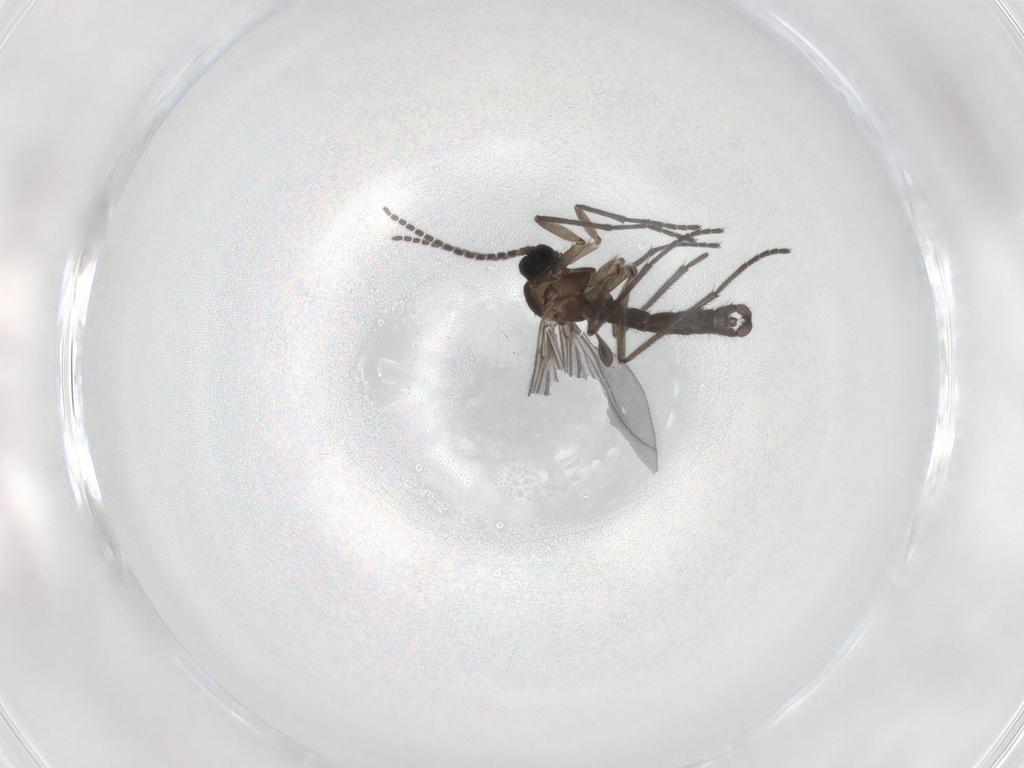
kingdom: Animalia
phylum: Arthropoda
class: Insecta
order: Diptera
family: Sciaridae
